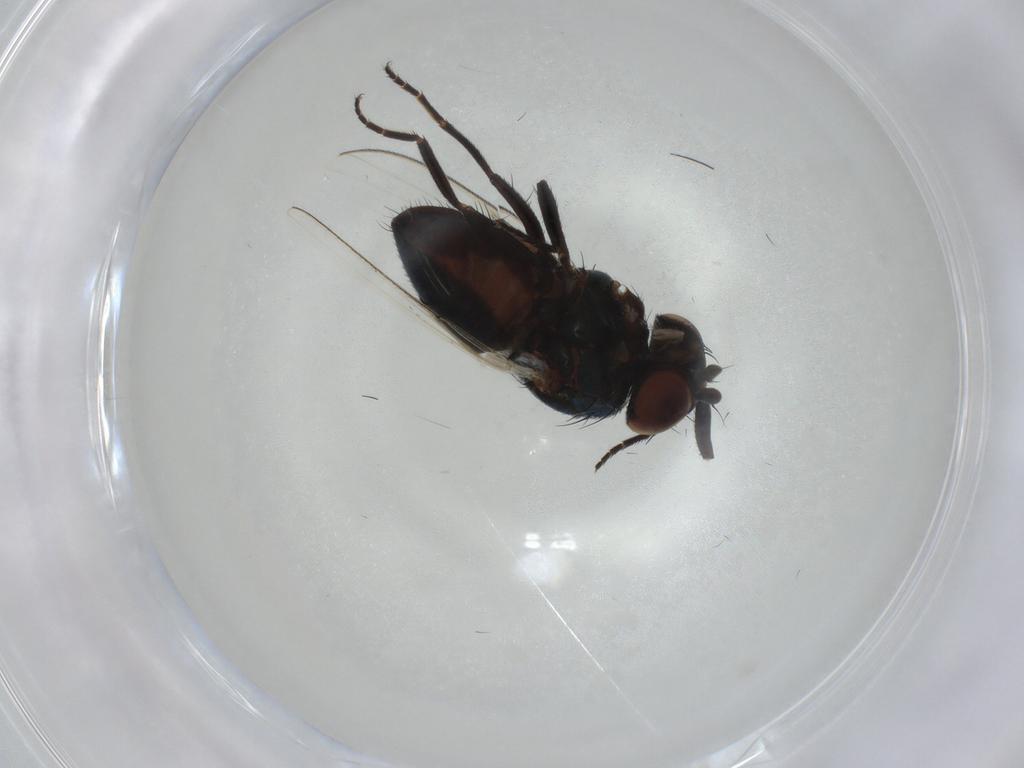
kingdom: Animalia
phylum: Arthropoda
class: Insecta
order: Diptera
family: Milichiidae
